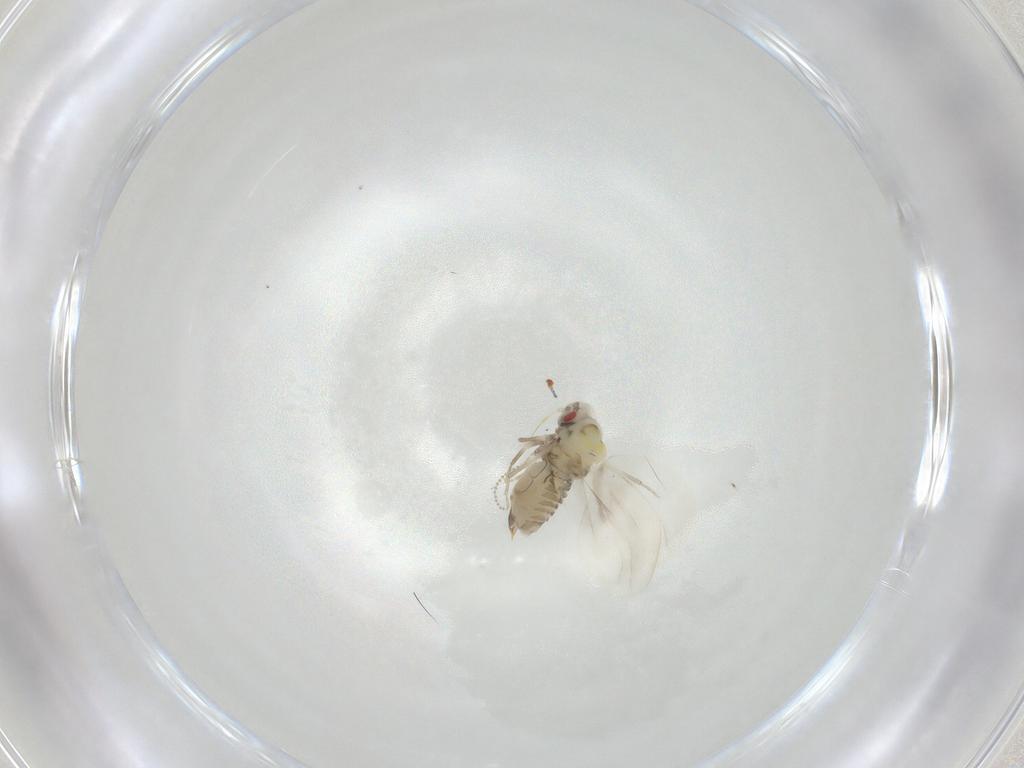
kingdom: Animalia
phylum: Arthropoda
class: Insecta
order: Hemiptera
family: Aleyrodidae
